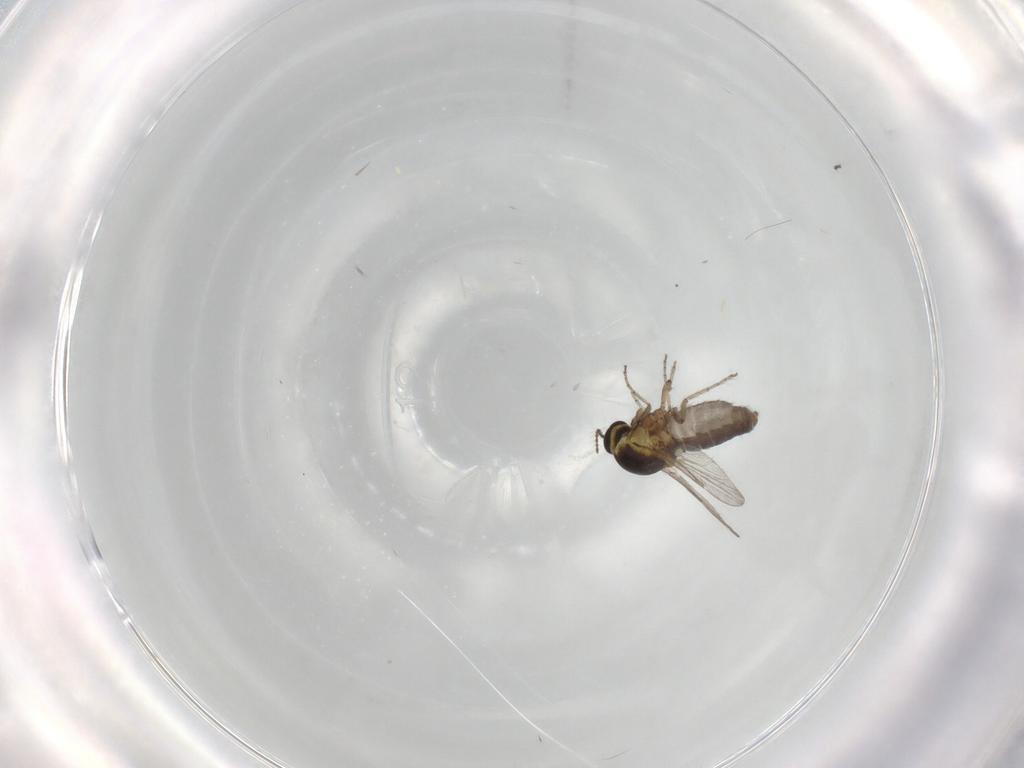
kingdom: Animalia
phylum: Arthropoda
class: Insecta
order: Diptera
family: Ceratopogonidae
